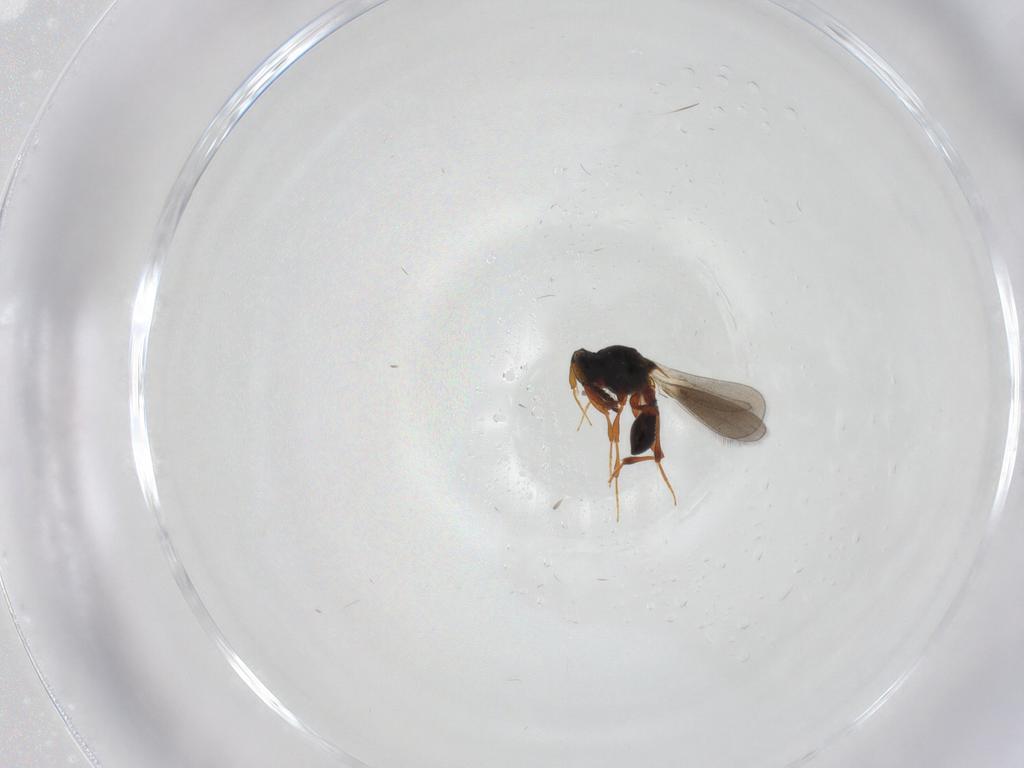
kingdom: Animalia
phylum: Arthropoda
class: Insecta
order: Hymenoptera
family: Platygastridae
